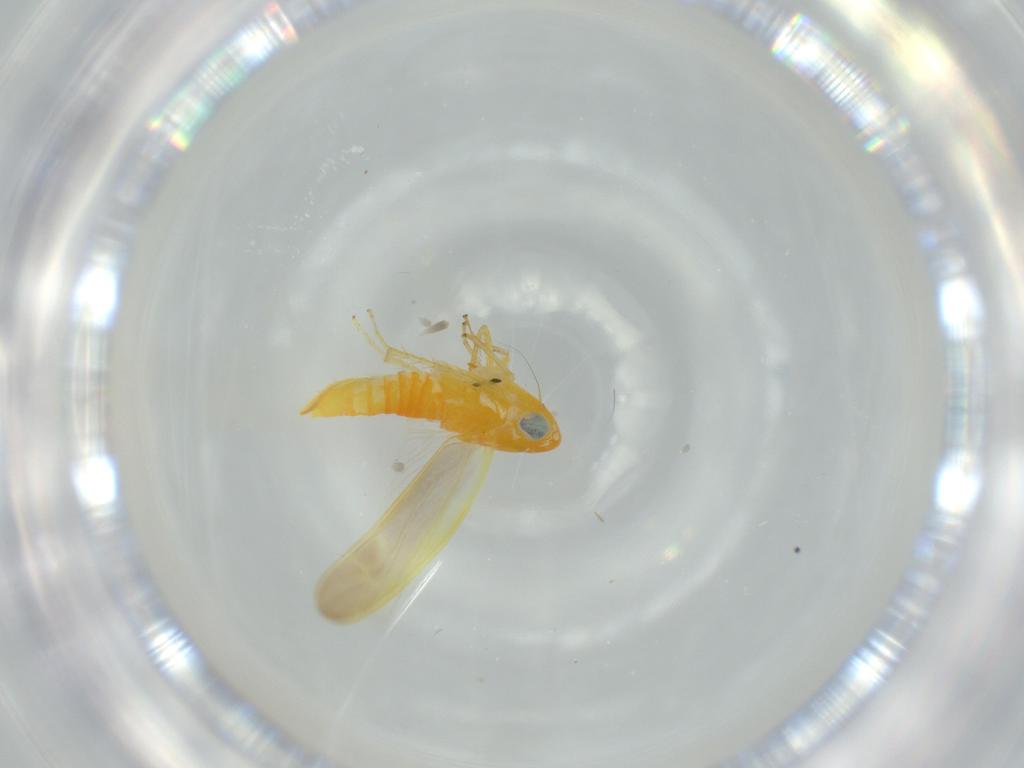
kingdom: Animalia
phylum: Arthropoda
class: Insecta
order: Hemiptera
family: Cicadellidae
